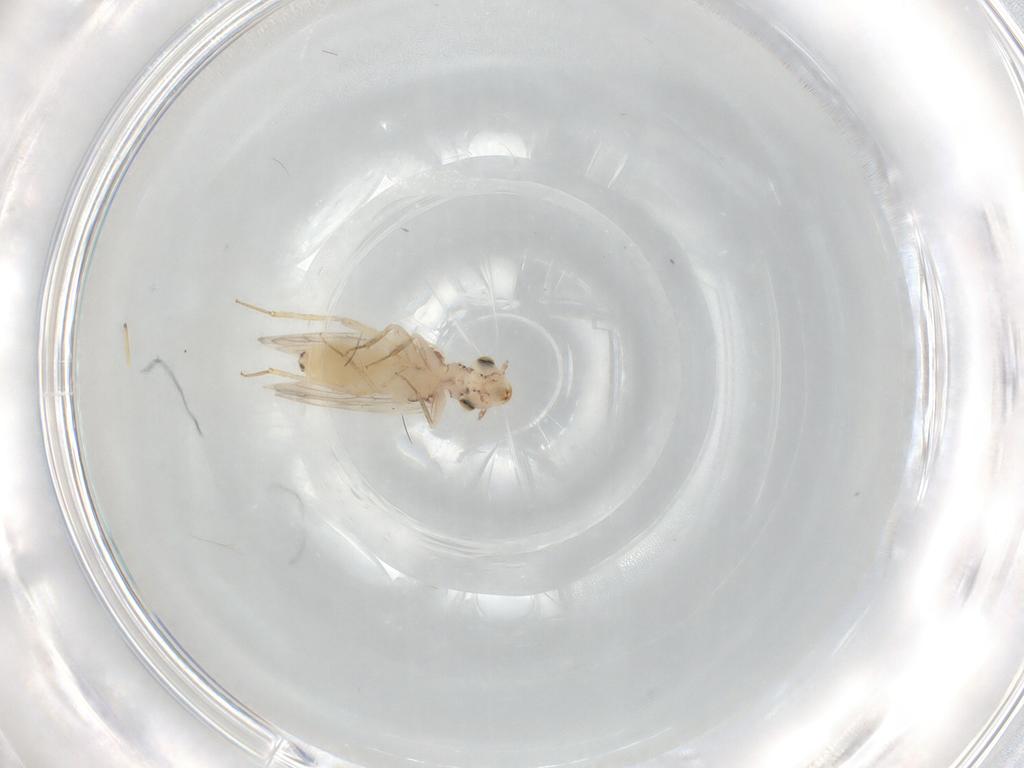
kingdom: Animalia
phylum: Arthropoda
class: Insecta
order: Psocodea
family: Lepidopsocidae
